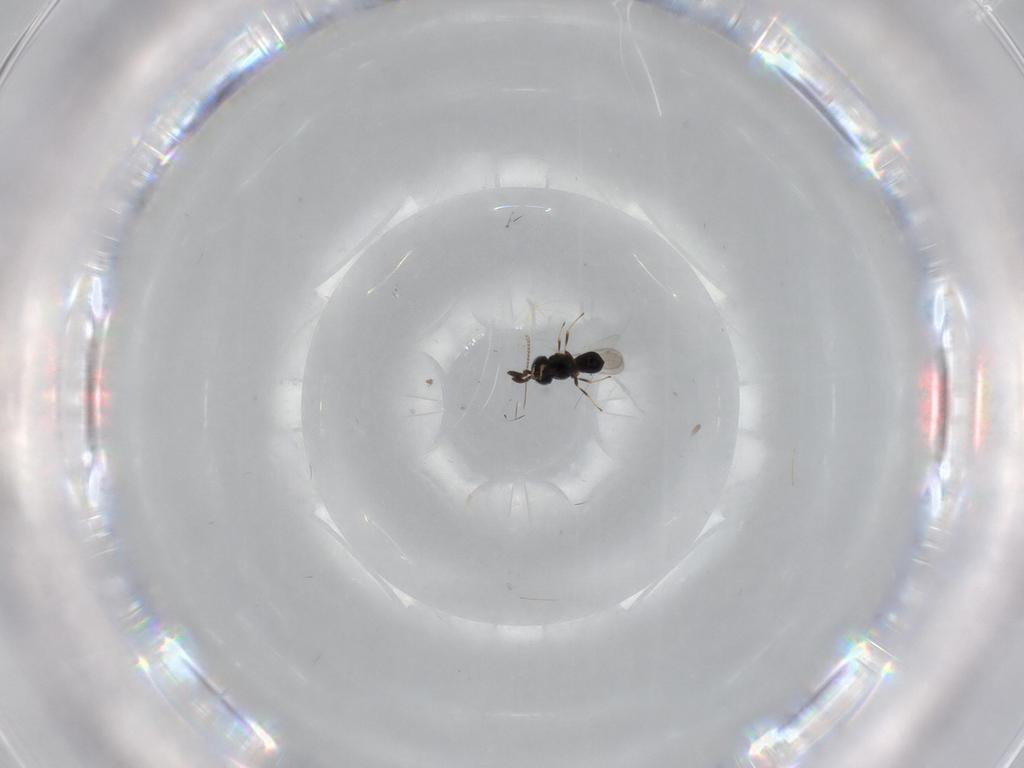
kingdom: Animalia
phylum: Arthropoda
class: Insecta
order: Hymenoptera
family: Scelionidae
